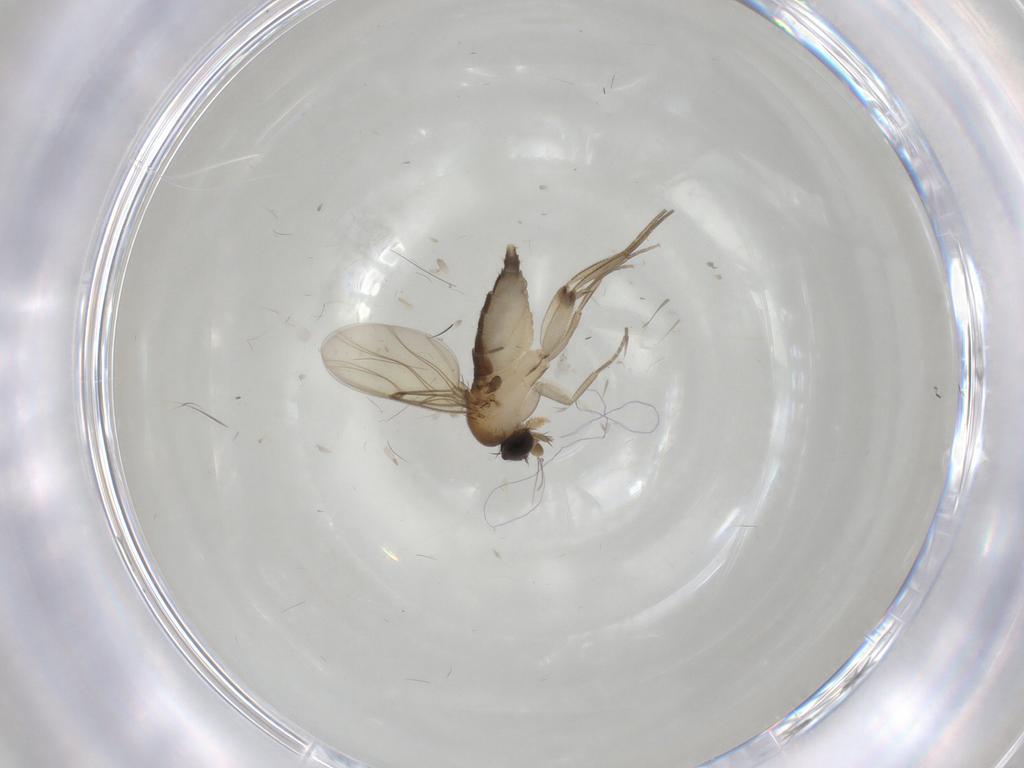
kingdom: Animalia
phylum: Arthropoda
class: Insecta
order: Diptera
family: Phoridae
